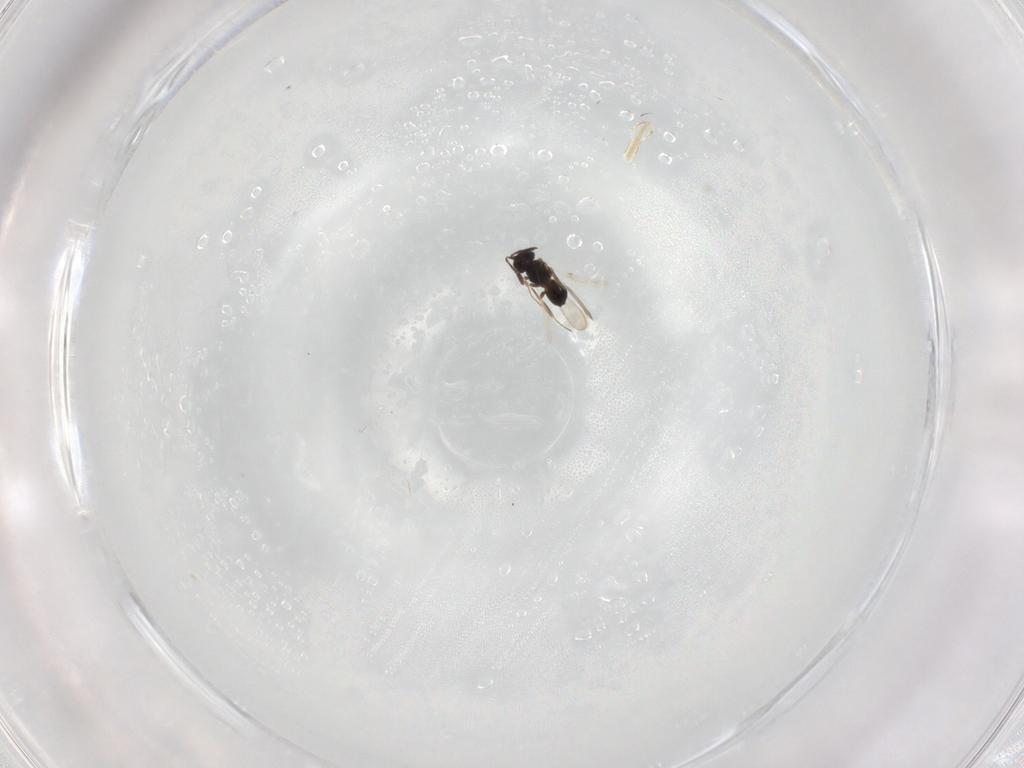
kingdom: Animalia
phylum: Arthropoda
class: Insecta
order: Hymenoptera
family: Scelionidae
